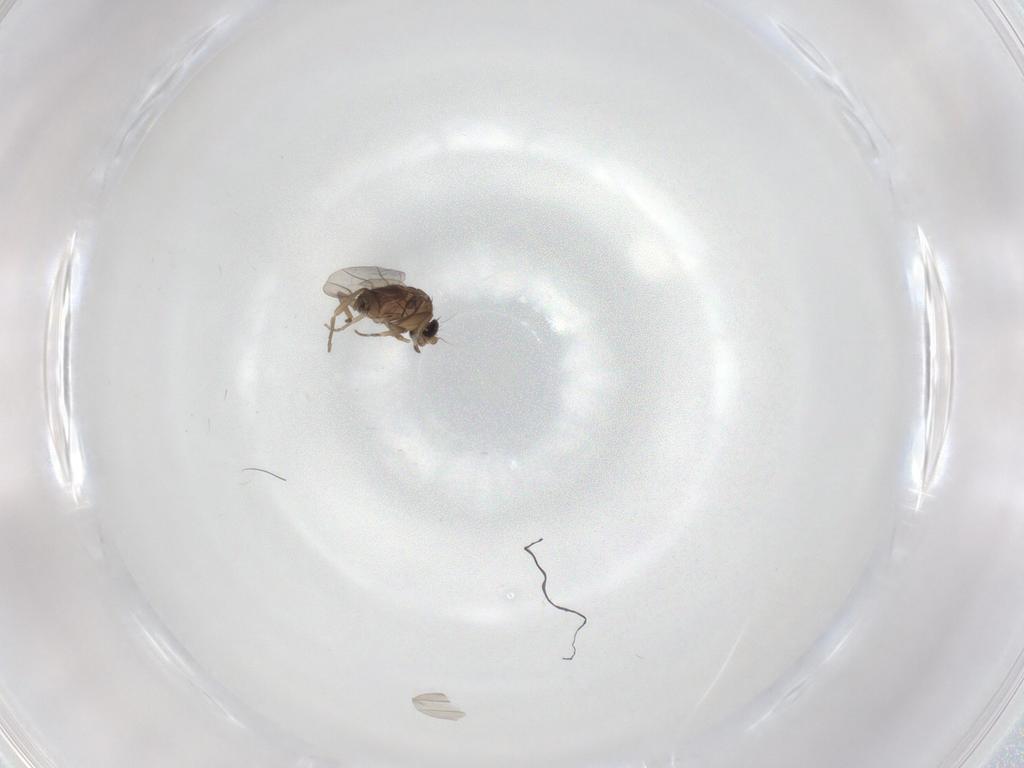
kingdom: Animalia
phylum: Arthropoda
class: Insecta
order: Diptera
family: Phoridae
